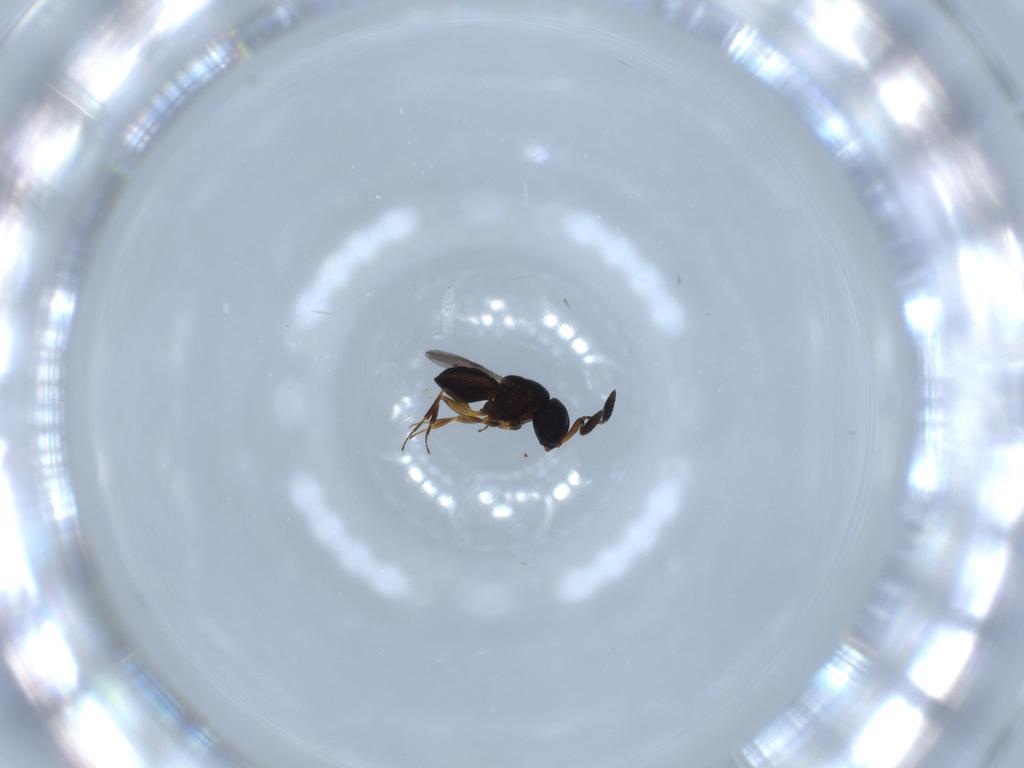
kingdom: Animalia
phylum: Arthropoda
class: Insecta
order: Hymenoptera
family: Scelionidae
